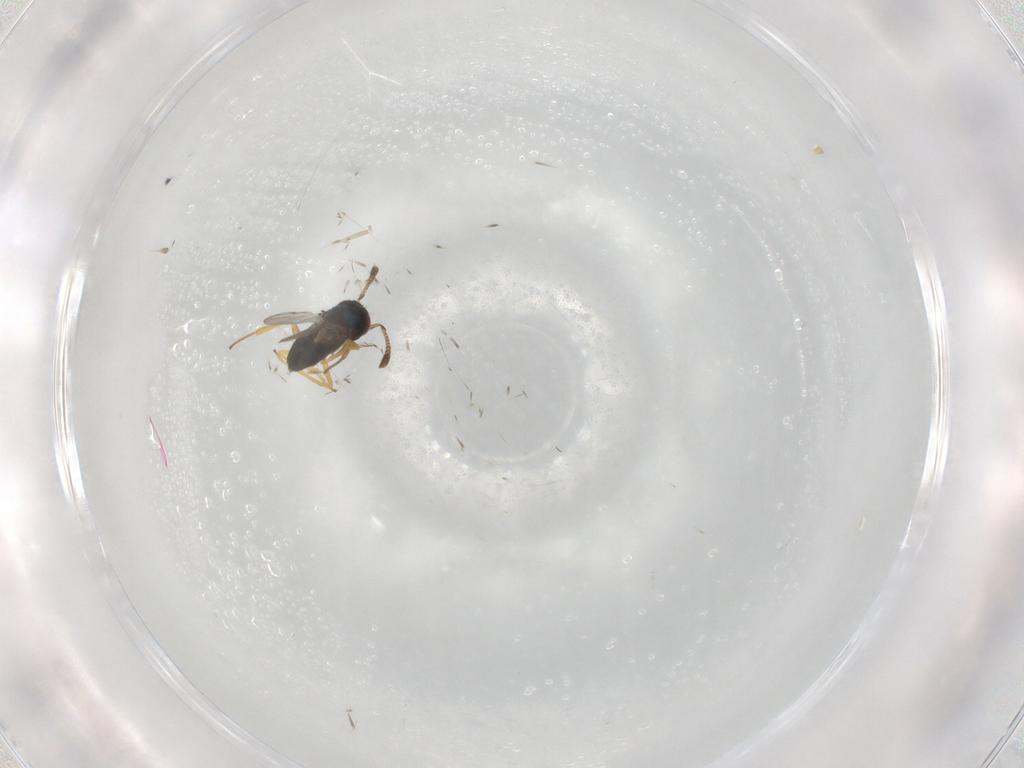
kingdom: Animalia
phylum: Arthropoda
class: Insecta
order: Hymenoptera
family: Encyrtidae
